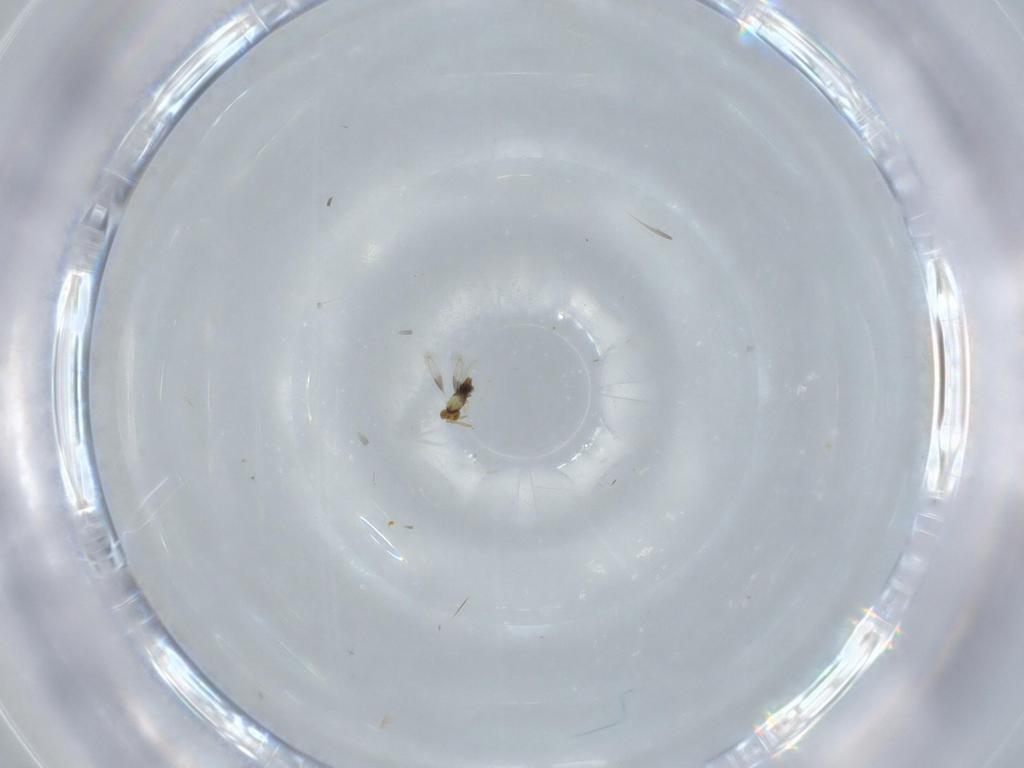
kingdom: Animalia
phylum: Arthropoda
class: Insecta
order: Hymenoptera
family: Aphelinidae
